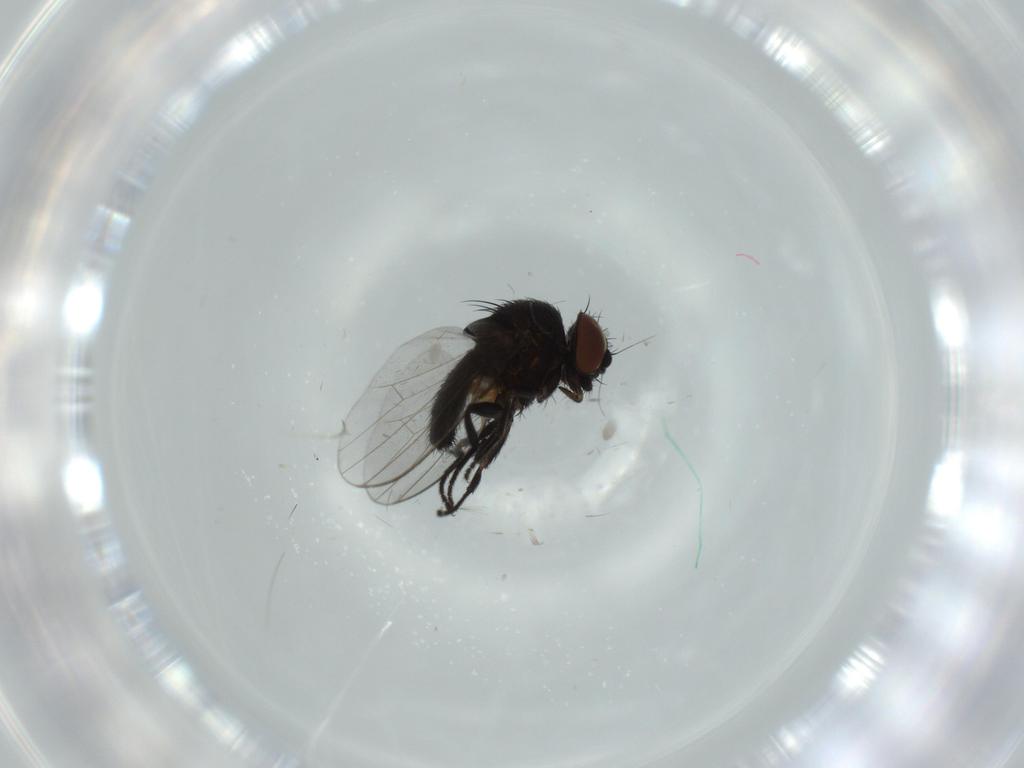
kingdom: Animalia
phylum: Arthropoda
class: Insecta
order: Diptera
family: Milichiidae
